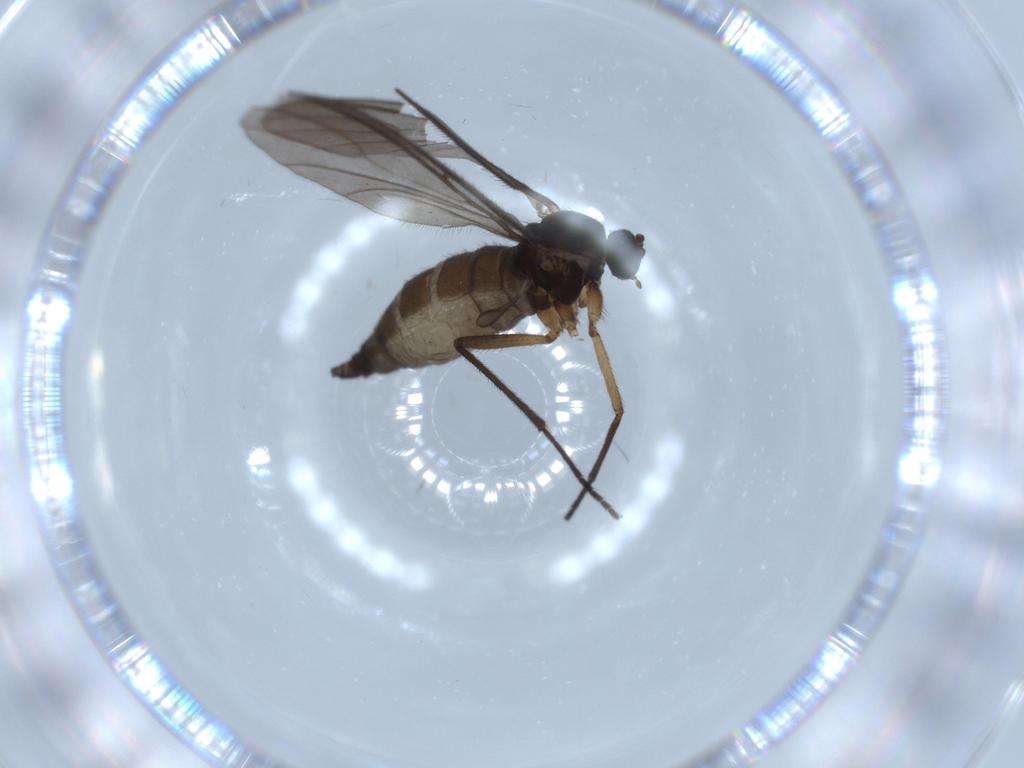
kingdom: Animalia
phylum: Arthropoda
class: Insecta
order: Diptera
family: Sciaridae
